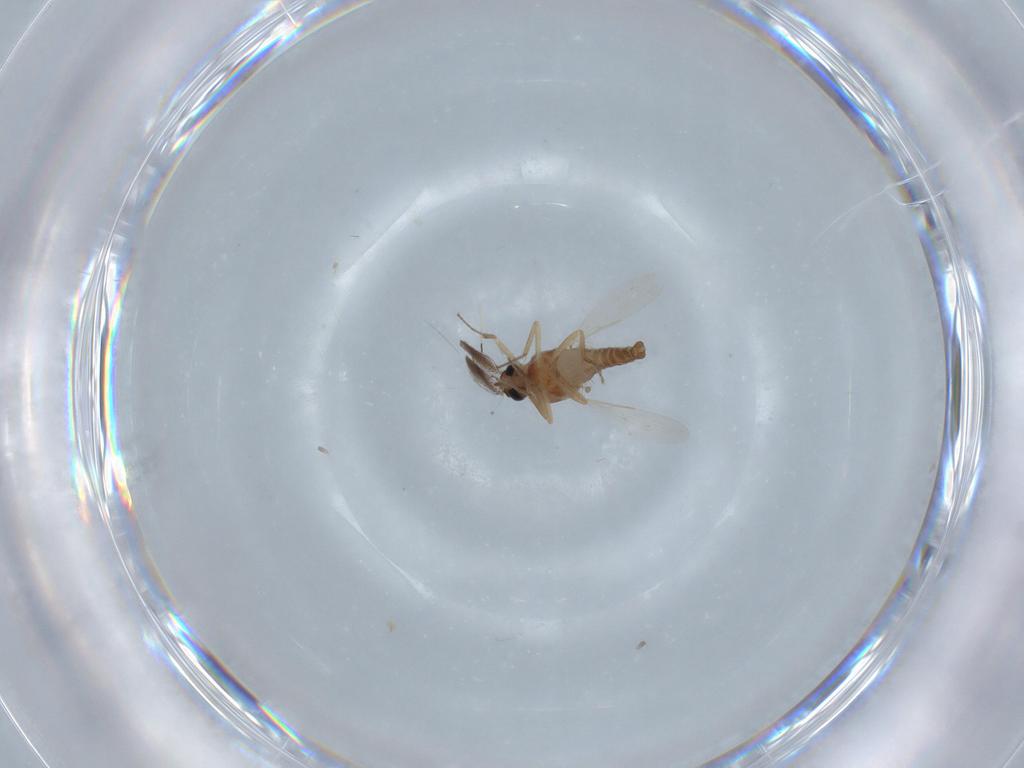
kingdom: Animalia
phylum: Arthropoda
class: Insecta
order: Diptera
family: Ceratopogonidae
